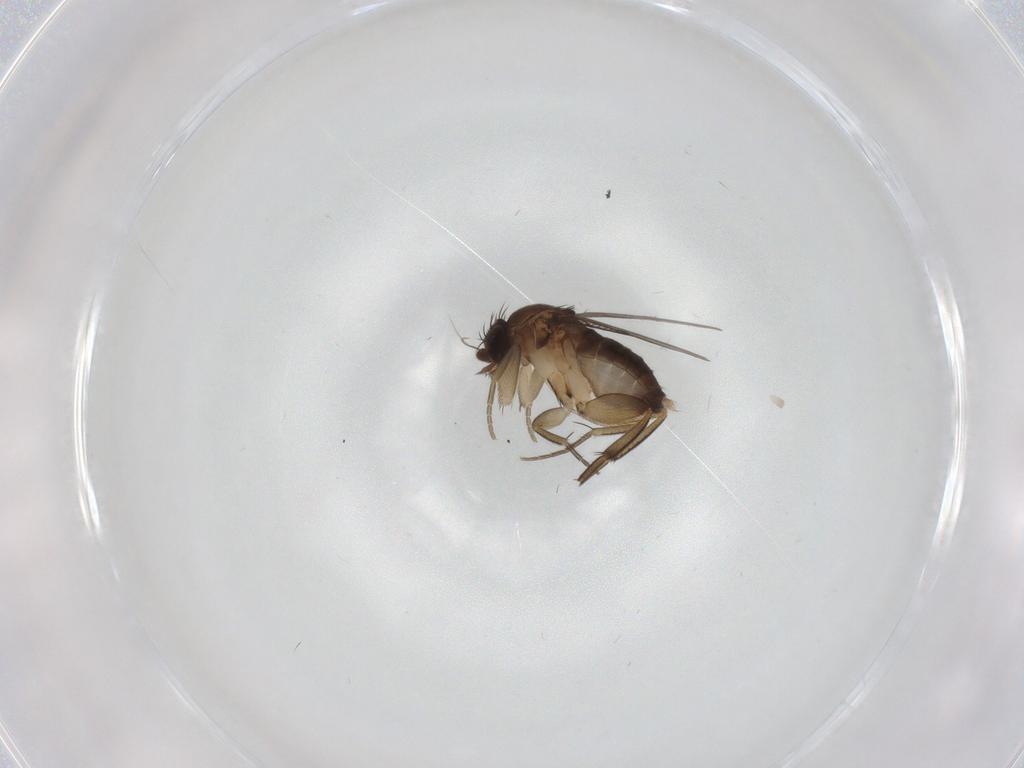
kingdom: Animalia
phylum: Arthropoda
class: Insecta
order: Diptera
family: Phoridae
